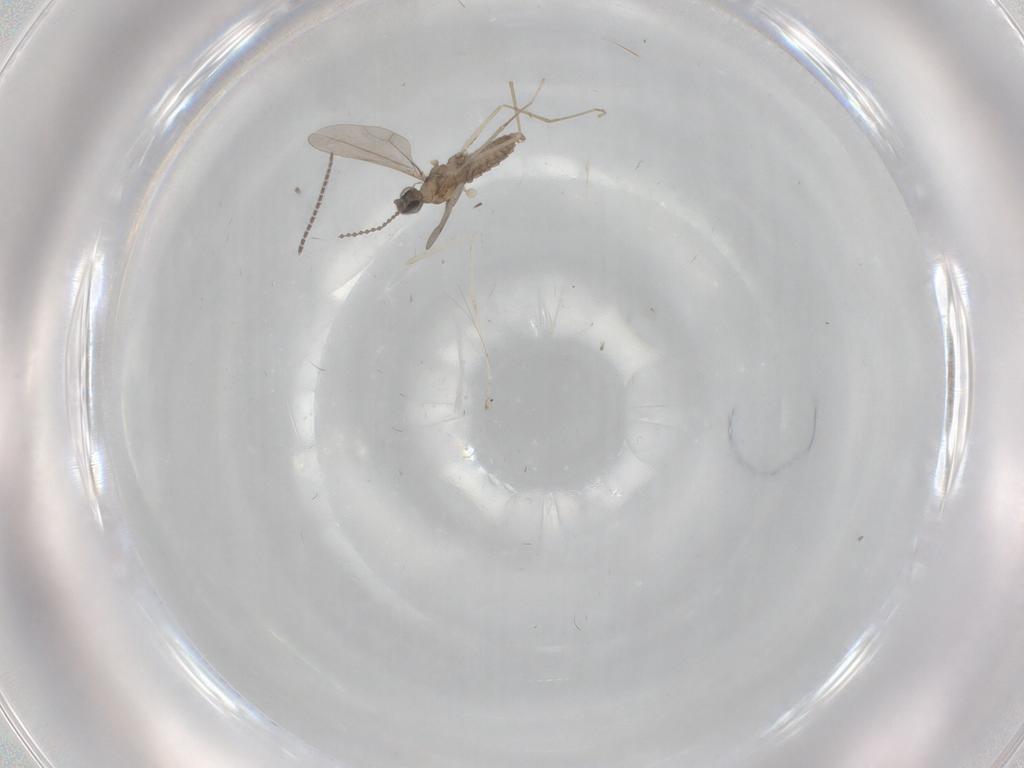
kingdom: Animalia
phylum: Arthropoda
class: Insecta
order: Diptera
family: Cecidomyiidae
